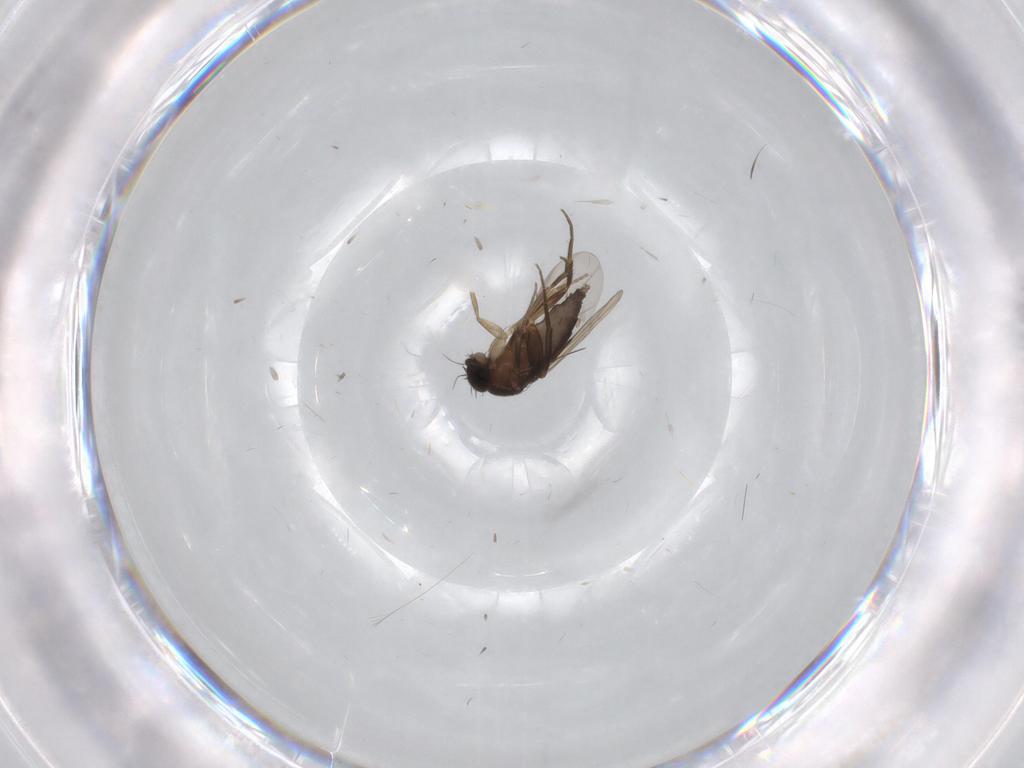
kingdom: Animalia
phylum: Arthropoda
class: Insecta
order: Diptera
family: Phoridae
